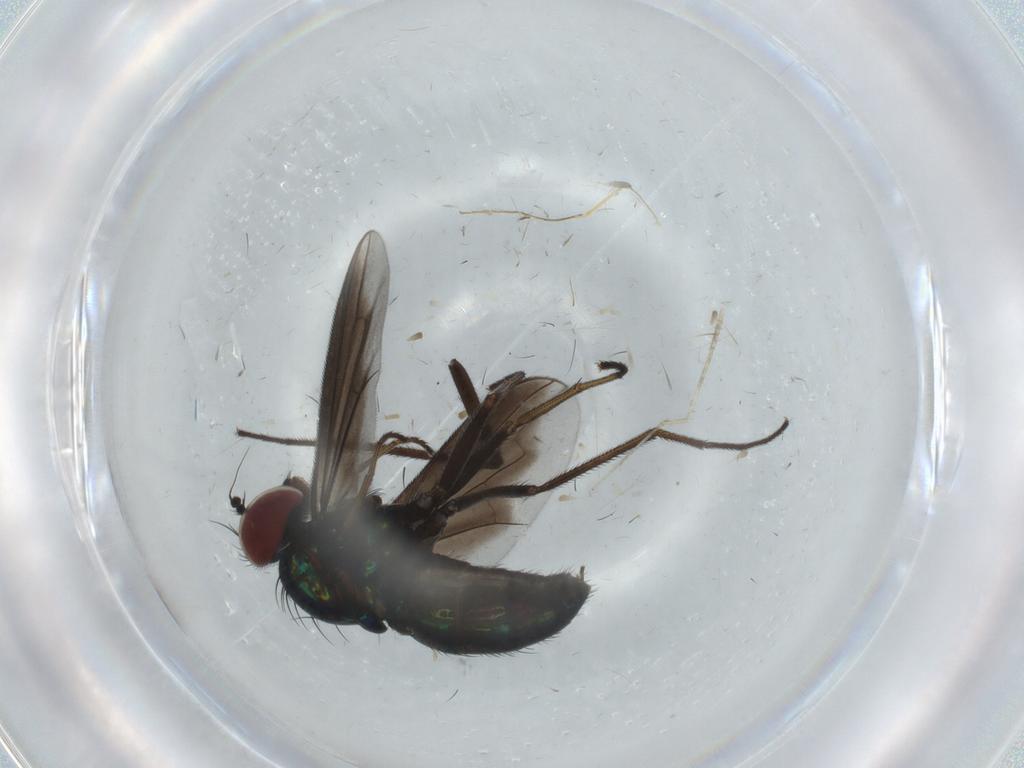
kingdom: Animalia
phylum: Arthropoda
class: Insecta
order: Diptera
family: Dolichopodidae
